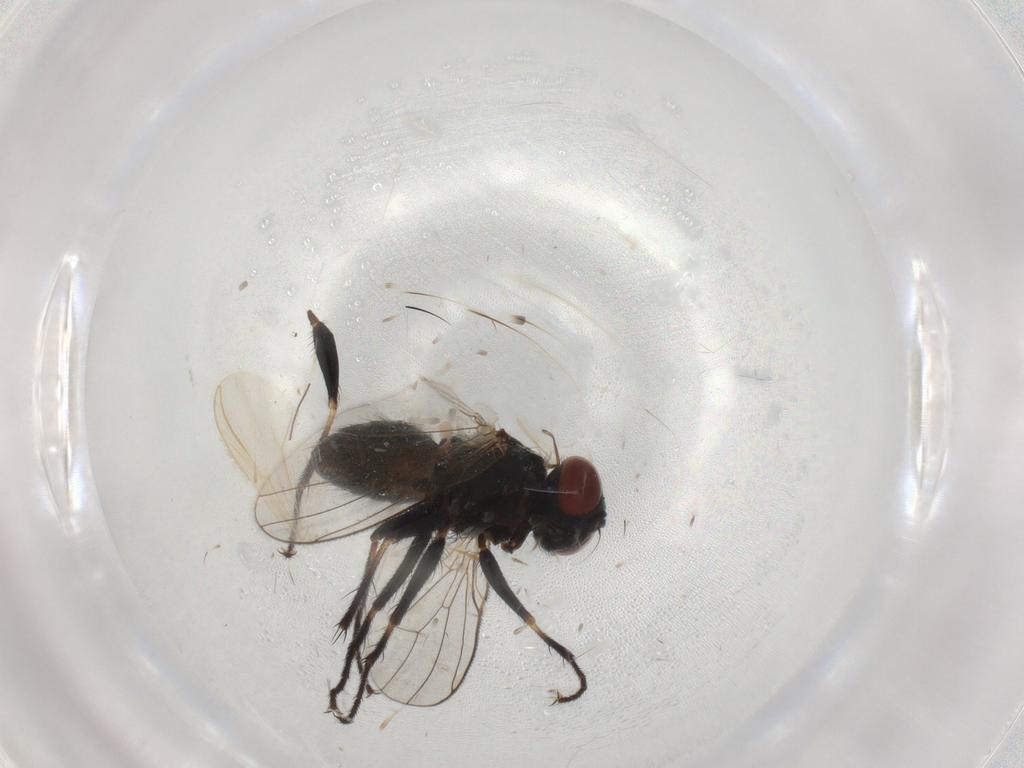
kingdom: Animalia
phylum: Arthropoda
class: Insecta
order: Diptera
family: Muscidae
